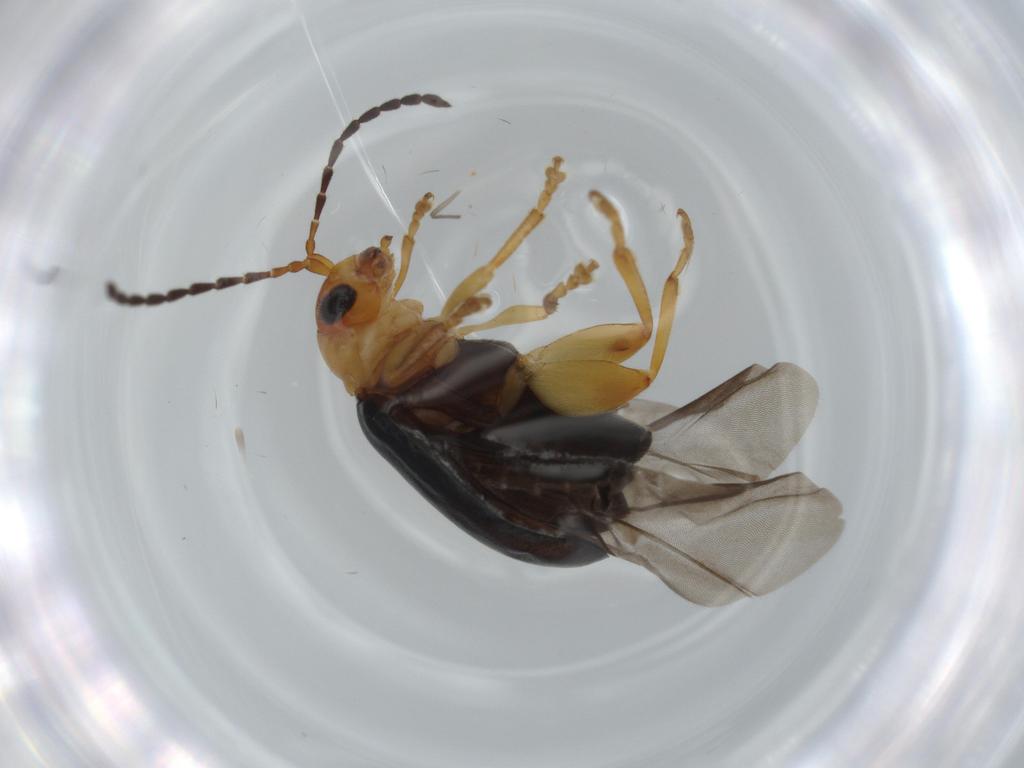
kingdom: Animalia
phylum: Arthropoda
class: Insecta
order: Coleoptera
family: Chrysomelidae
